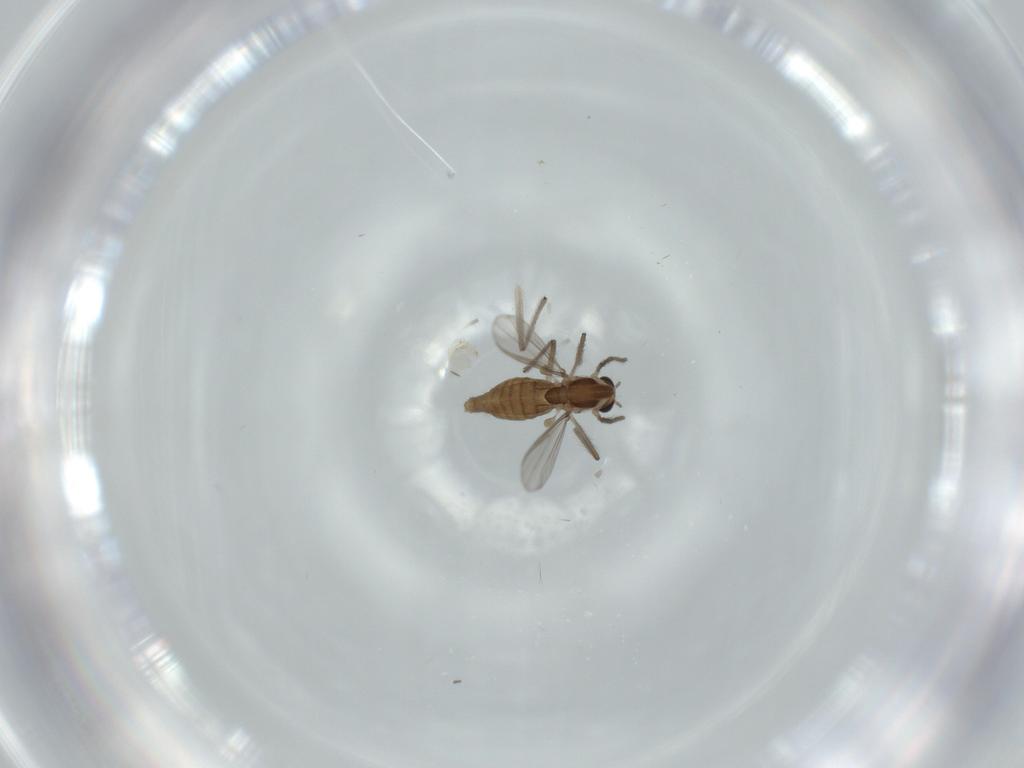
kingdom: Animalia
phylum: Arthropoda
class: Insecta
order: Diptera
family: Chironomidae
